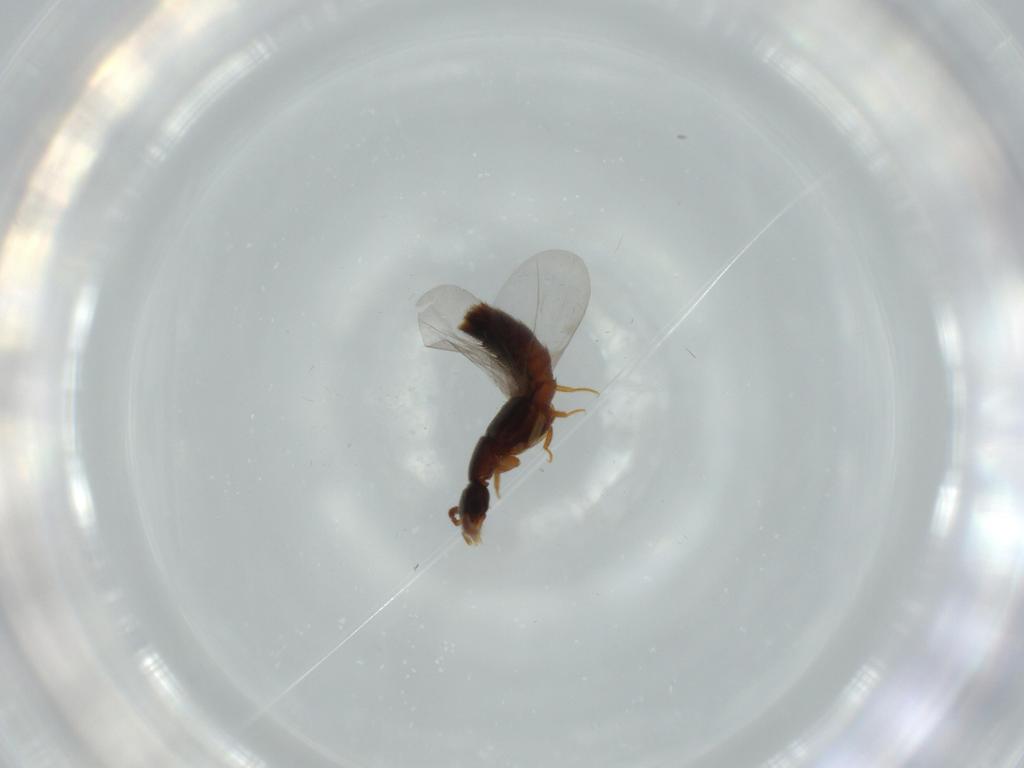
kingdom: Animalia
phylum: Arthropoda
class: Insecta
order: Coleoptera
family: Staphylinidae
